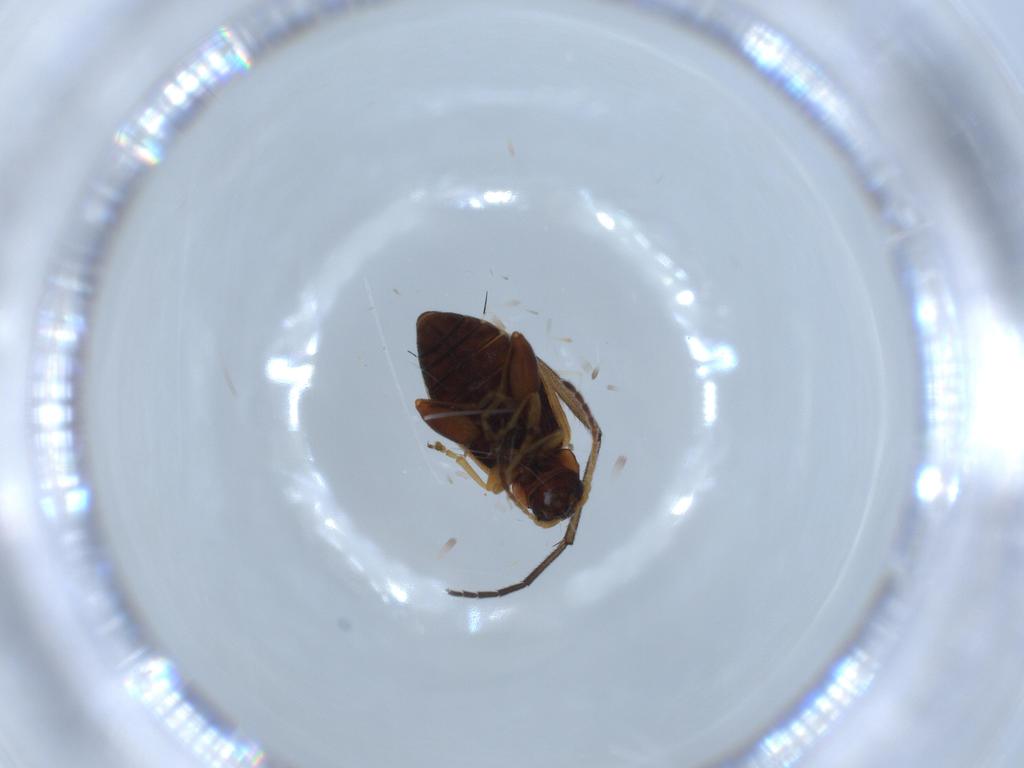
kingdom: Animalia
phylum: Arthropoda
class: Insecta
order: Coleoptera
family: Chrysomelidae
